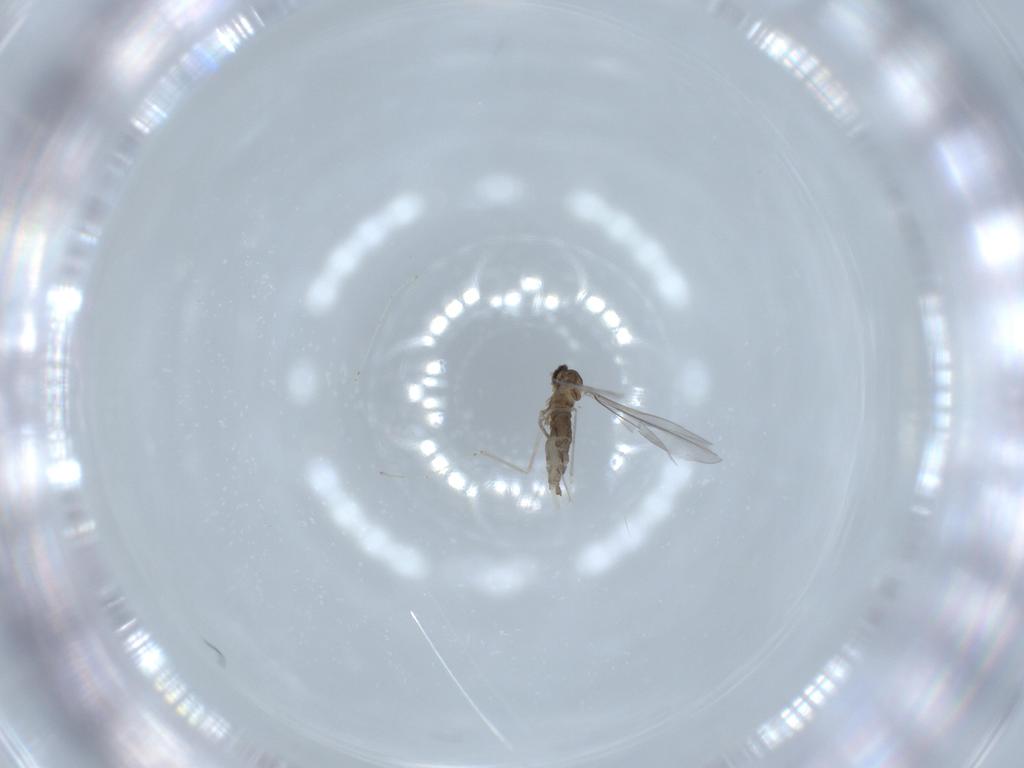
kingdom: Animalia
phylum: Arthropoda
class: Insecta
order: Diptera
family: Cecidomyiidae
